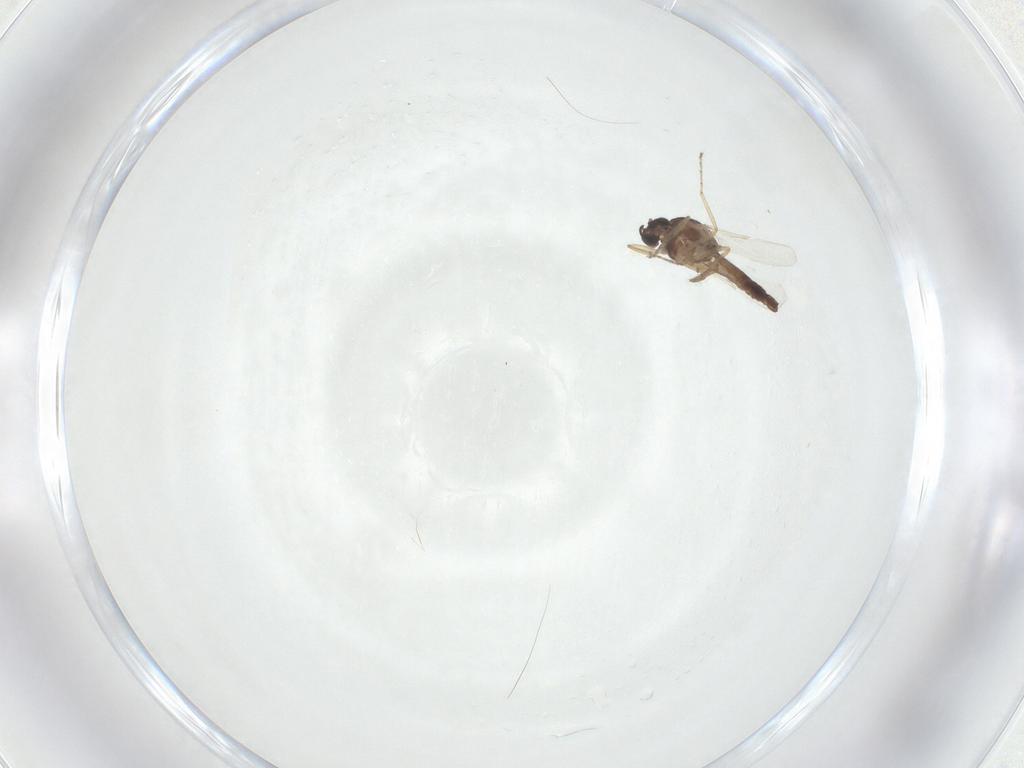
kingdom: Animalia
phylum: Arthropoda
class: Insecta
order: Diptera
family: Ceratopogonidae
